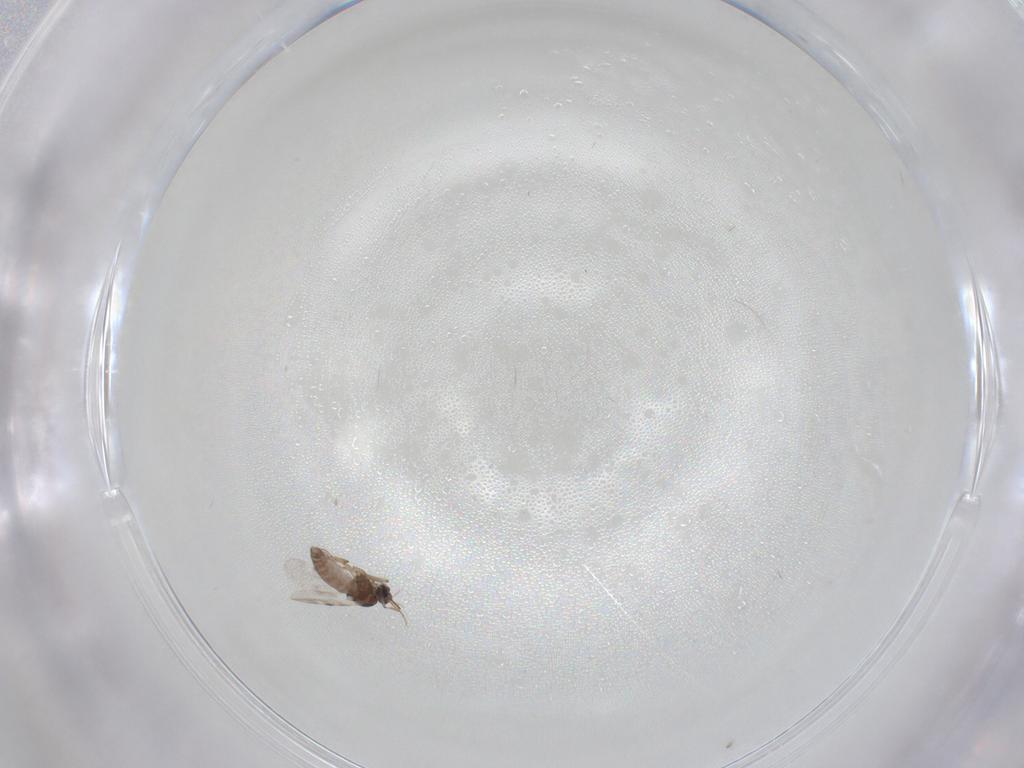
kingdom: Animalia
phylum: Arthropoda
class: Insecta
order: Diptera
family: Phoridae
